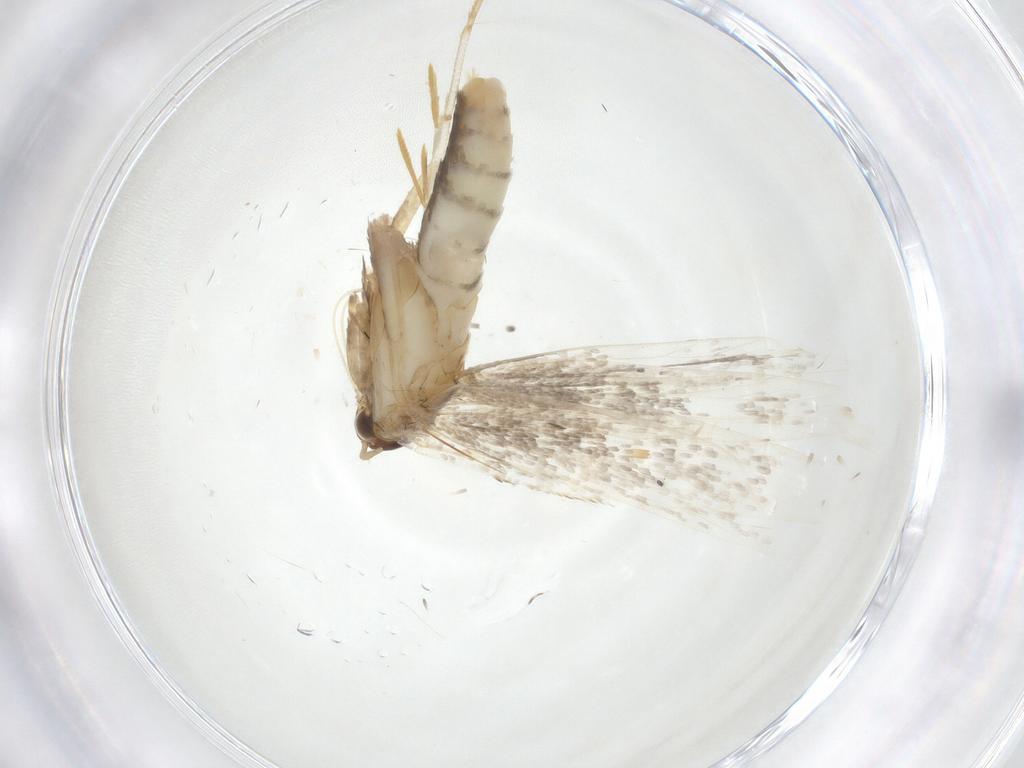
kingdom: Animalia
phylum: Arthropoda
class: Insecta
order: Lepidoptera
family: Gelechiidae
